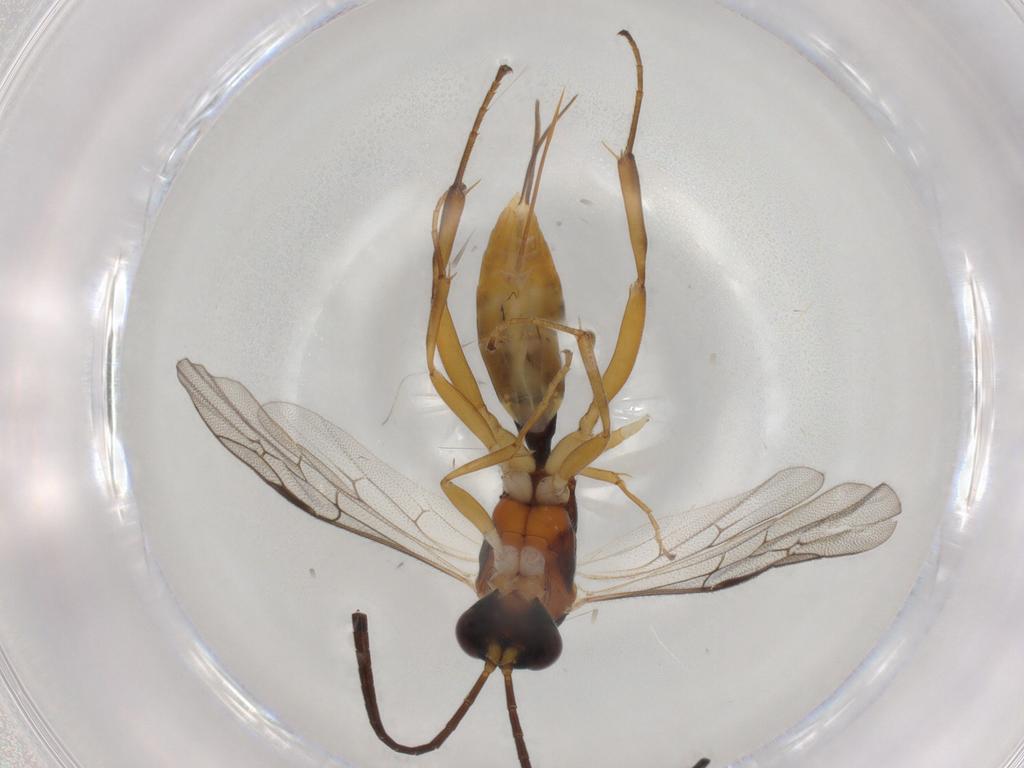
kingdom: Animalia
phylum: Arthropoda
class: Insecta
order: Hymenoptera
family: Ichneumonidae
